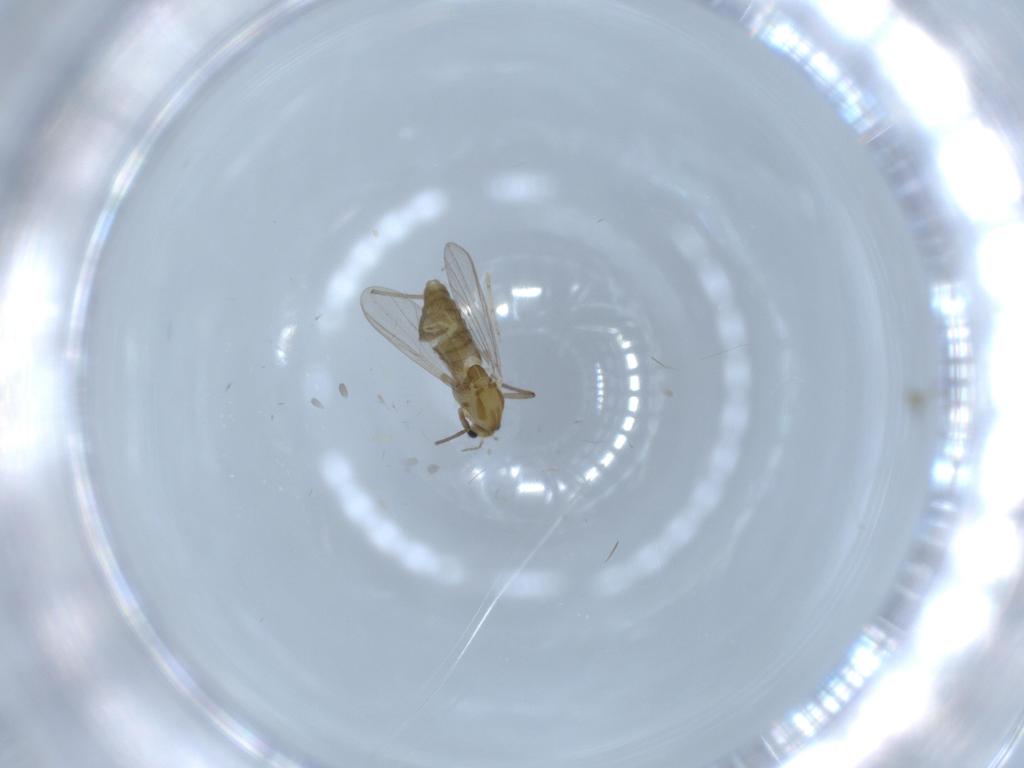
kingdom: Animalia
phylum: Arthropoda
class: Insecta
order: Diptera
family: Chironomidae
